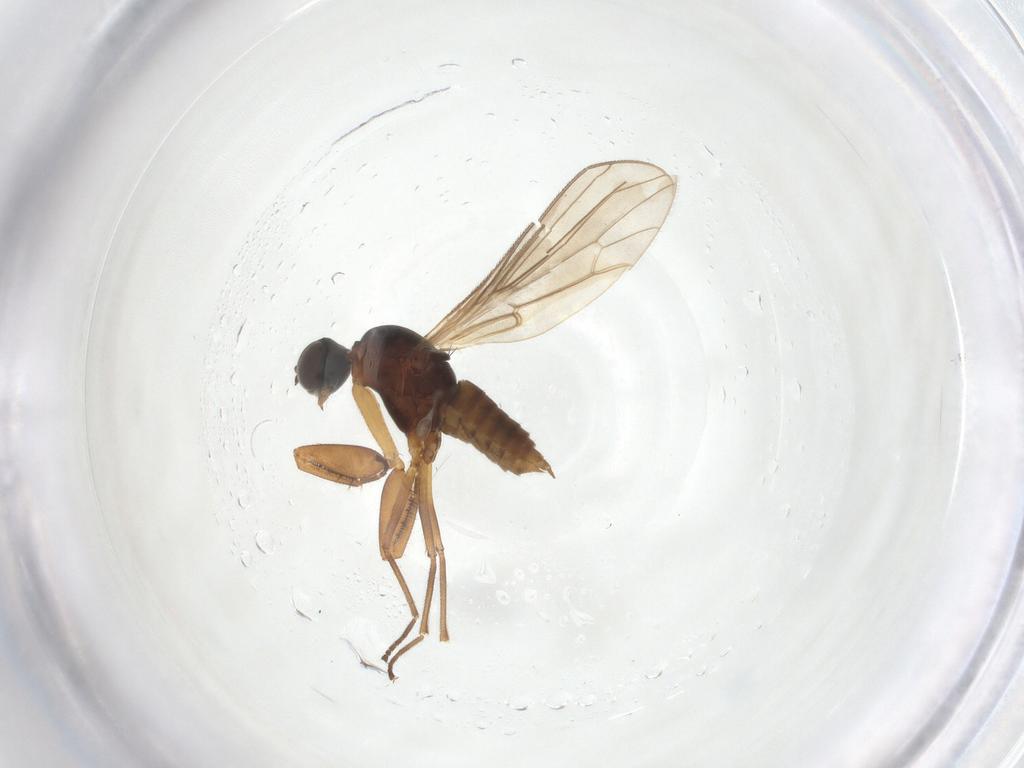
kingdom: Animalia
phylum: Arthropoda
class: Insecta
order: Diptera
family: Empididae
